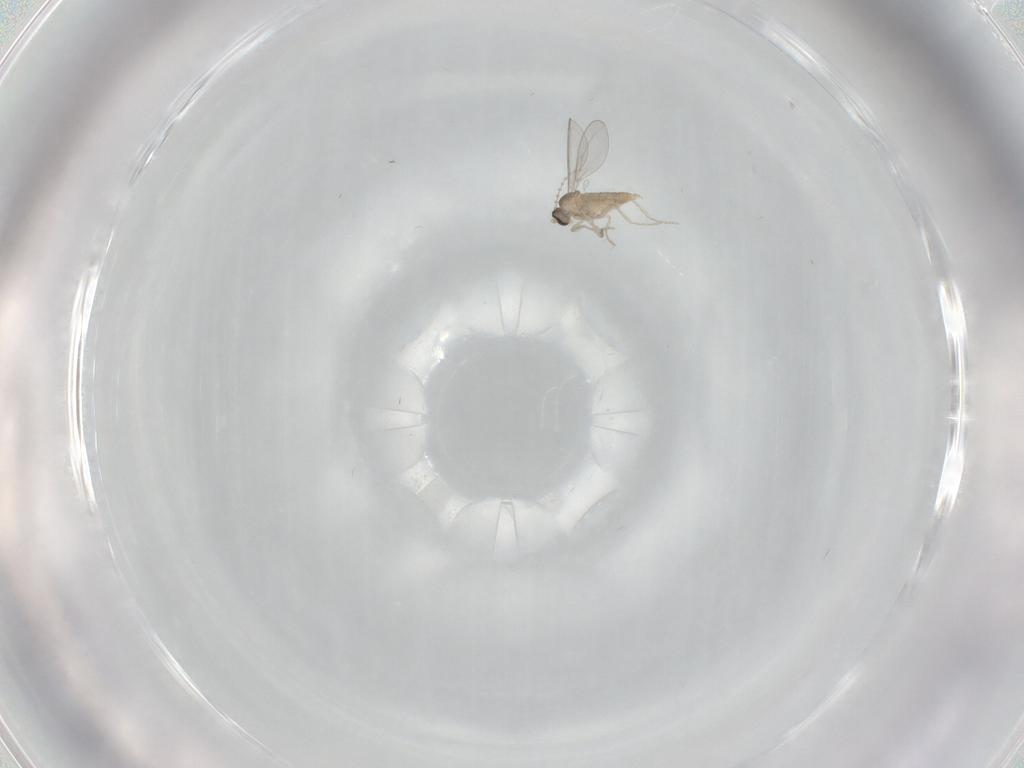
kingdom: Animalia
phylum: Arthropoda
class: Insecta
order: Diptera
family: Cecidomyiidae
